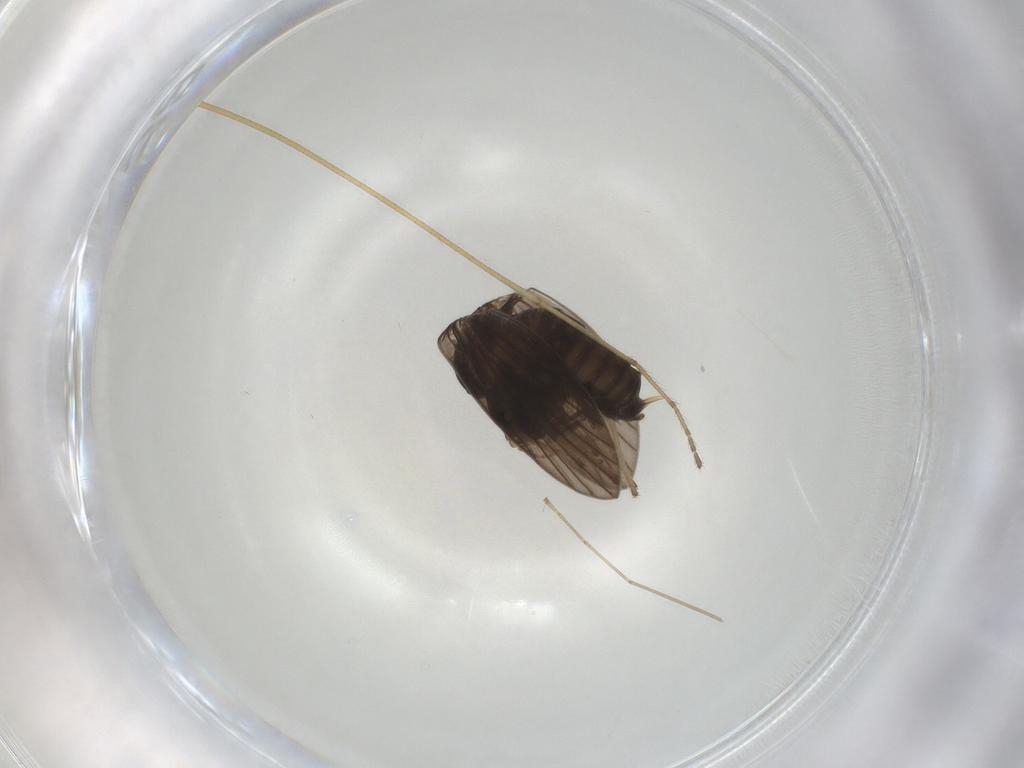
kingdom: Animalia
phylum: Arthropoda
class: Insecta
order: Diptera
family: Psychodidae
